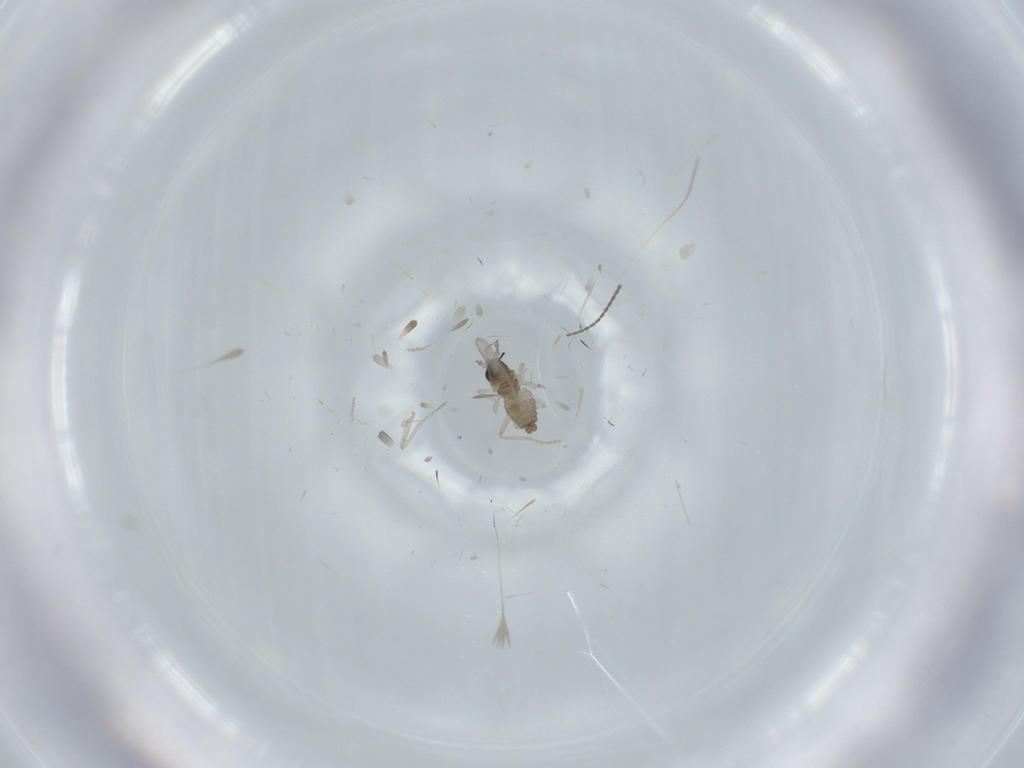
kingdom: Animalia
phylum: Arthropoda
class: Insecta
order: Diptera
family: Cecidomyiidae
